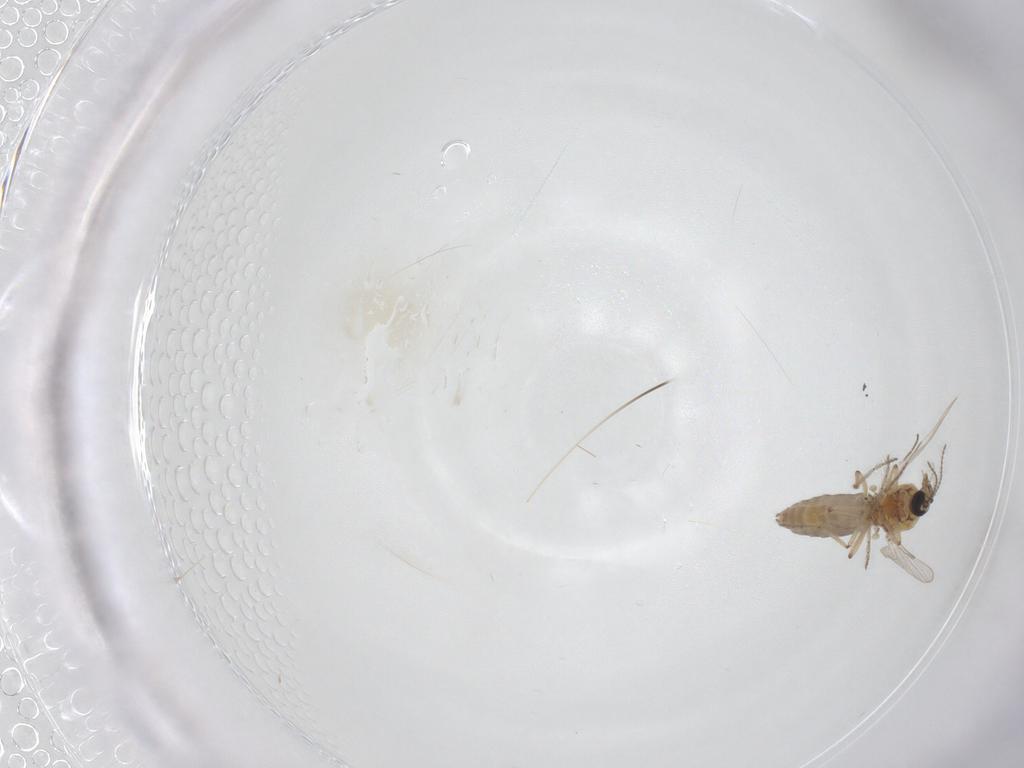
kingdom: Animalia
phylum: Arthropoda
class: Insecta
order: Diptera
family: Ceratopogonidae
